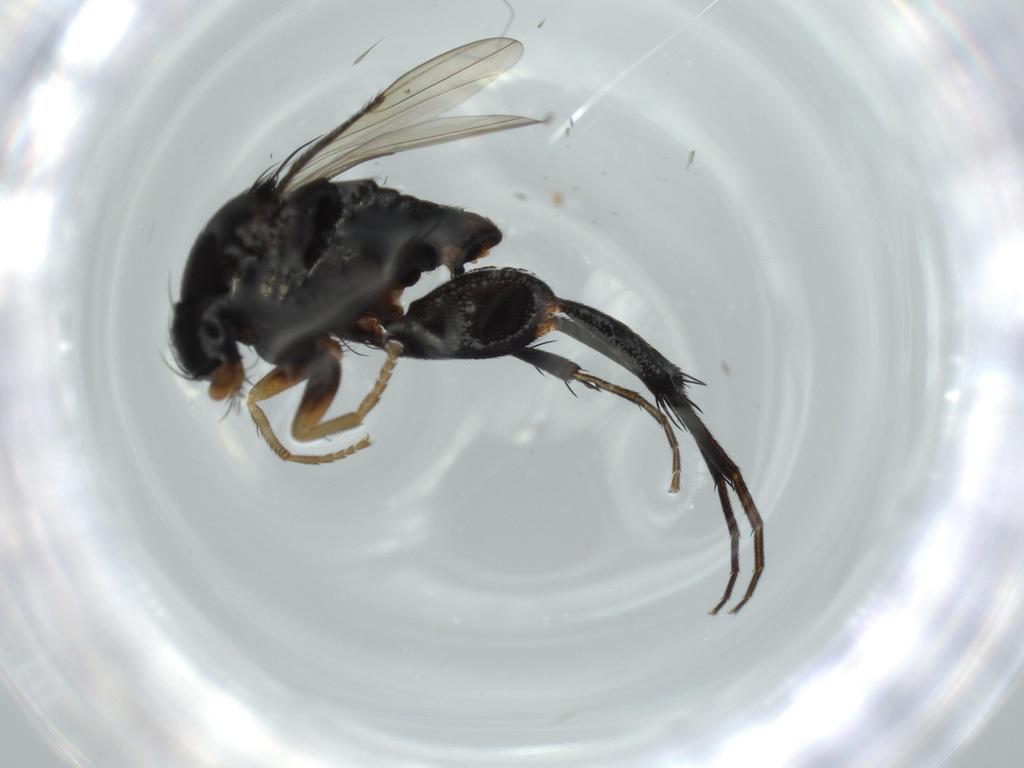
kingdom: Animalia
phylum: Arthropoda
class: Insecta
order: Diptera
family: Phoridae
